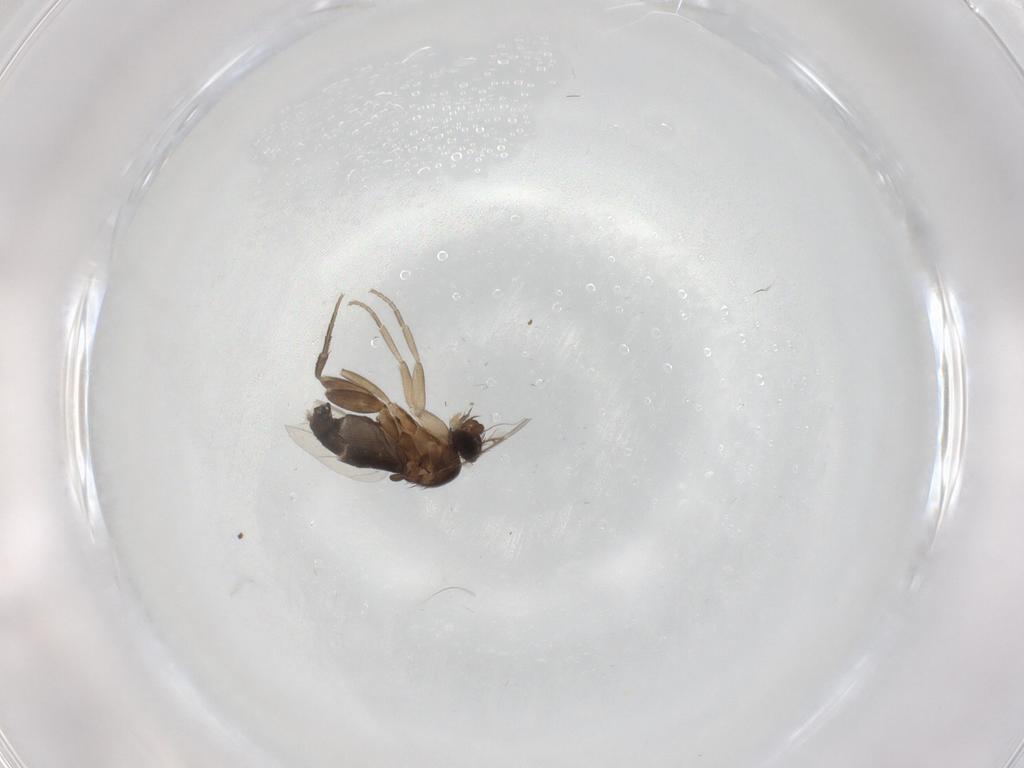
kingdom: Animalia
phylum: Arthropoda
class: Insecta
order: Diptera
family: Phoridae
